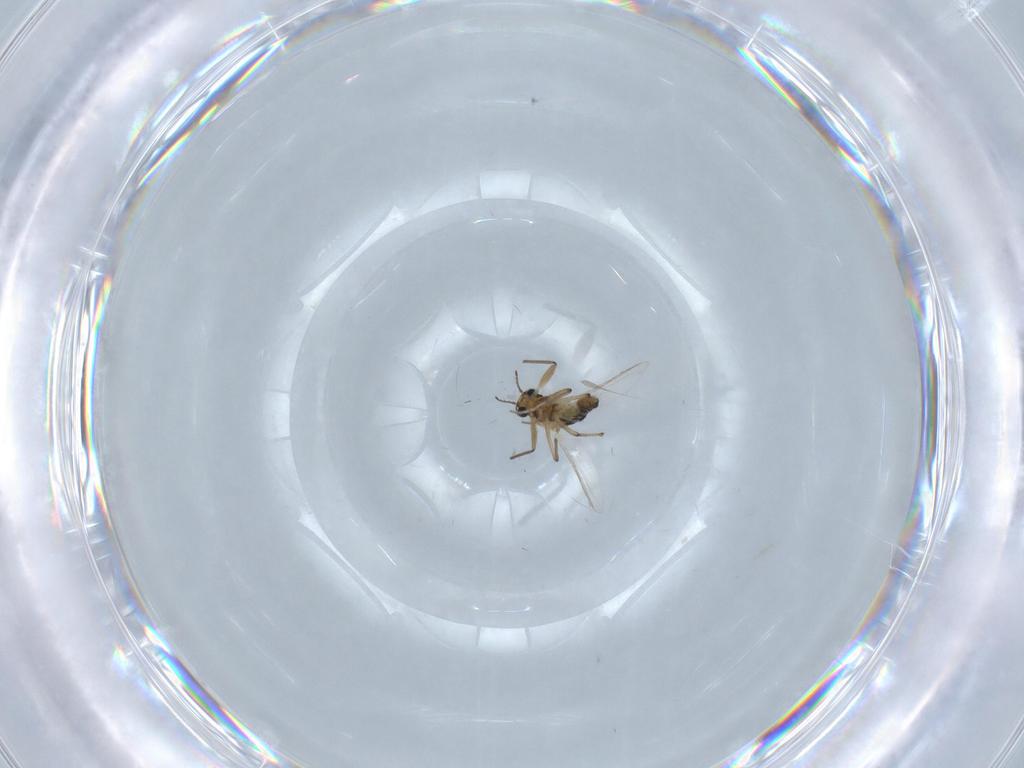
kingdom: Animalia
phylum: Arthropoda
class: Insecta
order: Diptera
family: Chironomidae
